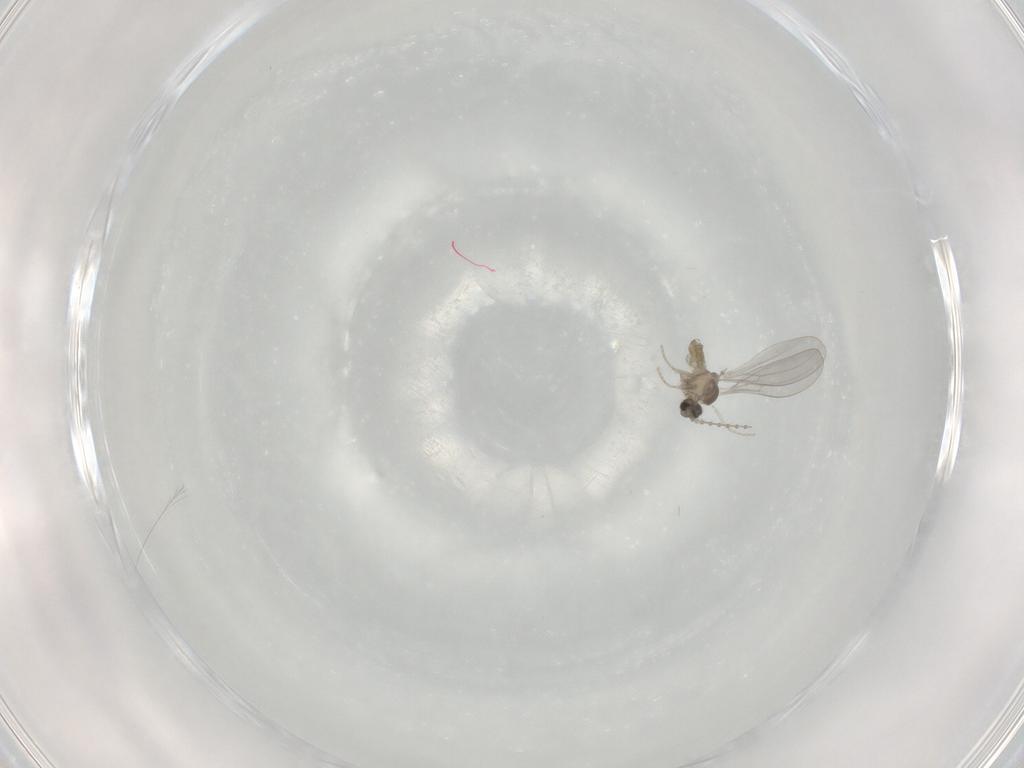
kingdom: Animalia
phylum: Arthropoda
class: Insecta
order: Diptera
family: Cecidomyiidae
